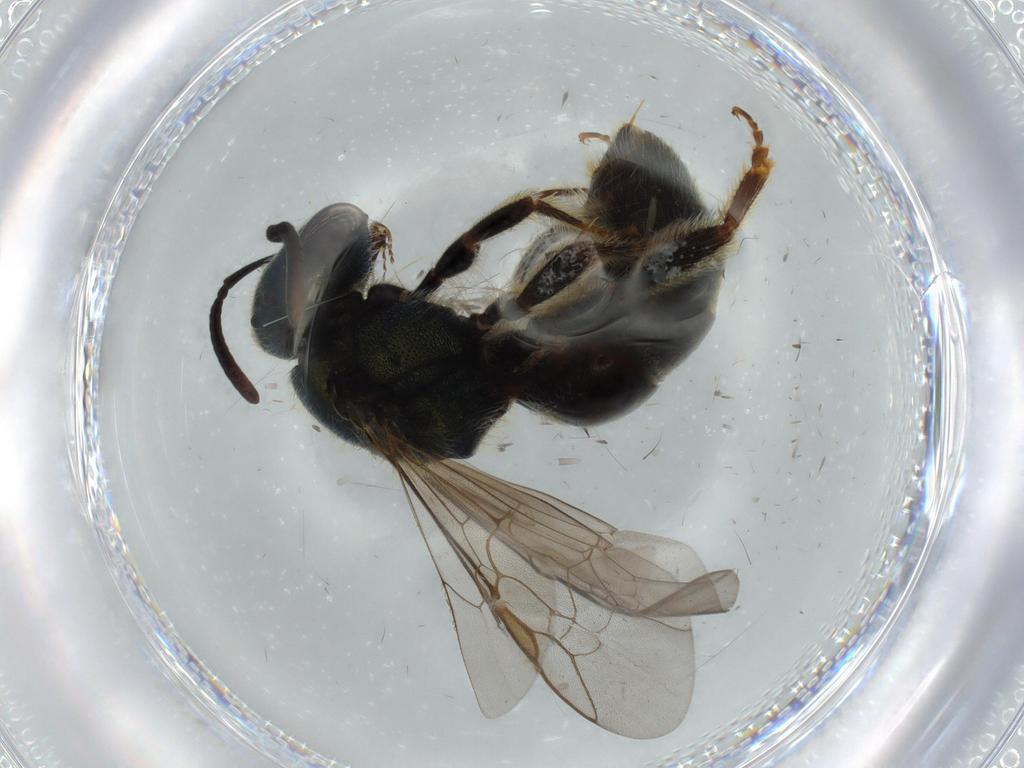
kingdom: Animalia
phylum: Arthropoda
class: Insecta
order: Hymenoptera
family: Halictidae
